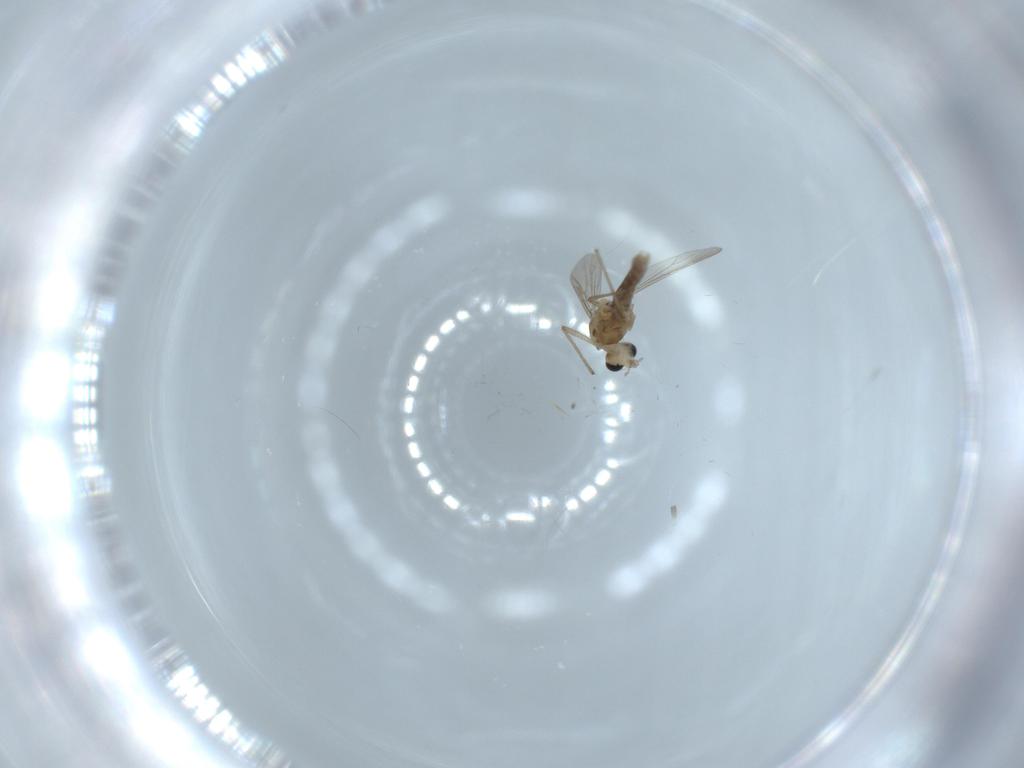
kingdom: Animalia
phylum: Arthropoda
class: Insecta
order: Diptera
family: Chironomidae
